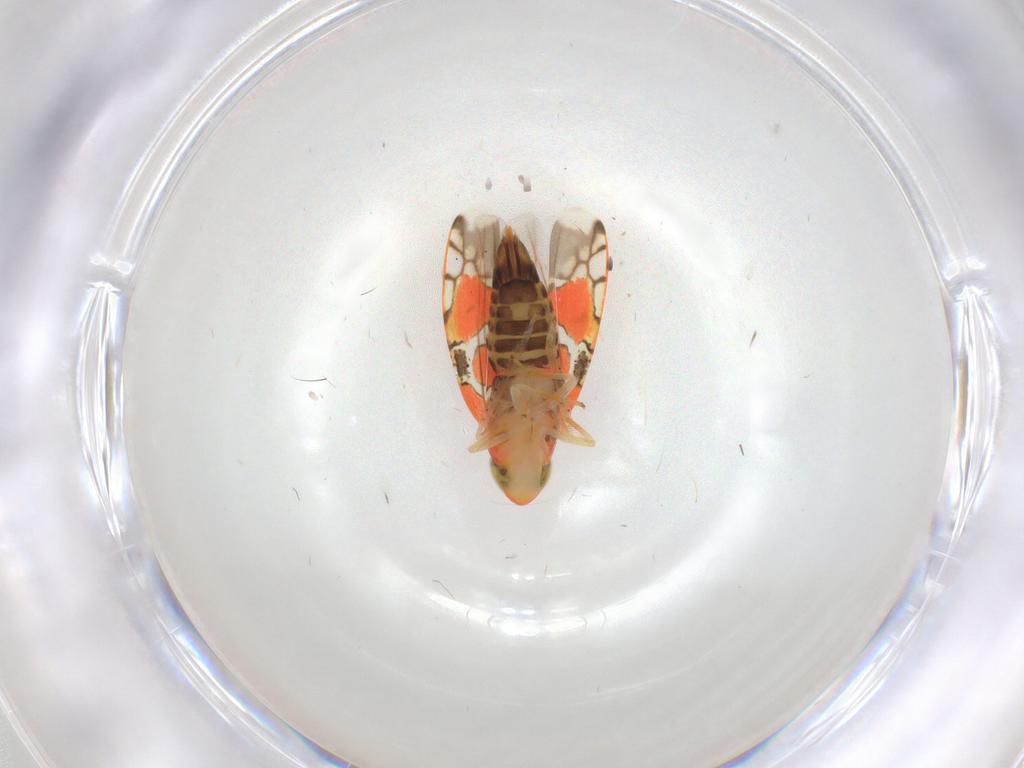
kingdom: Animalia
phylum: Arthropoda
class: Insecta
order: Hemiptera
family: Cicadellidae
